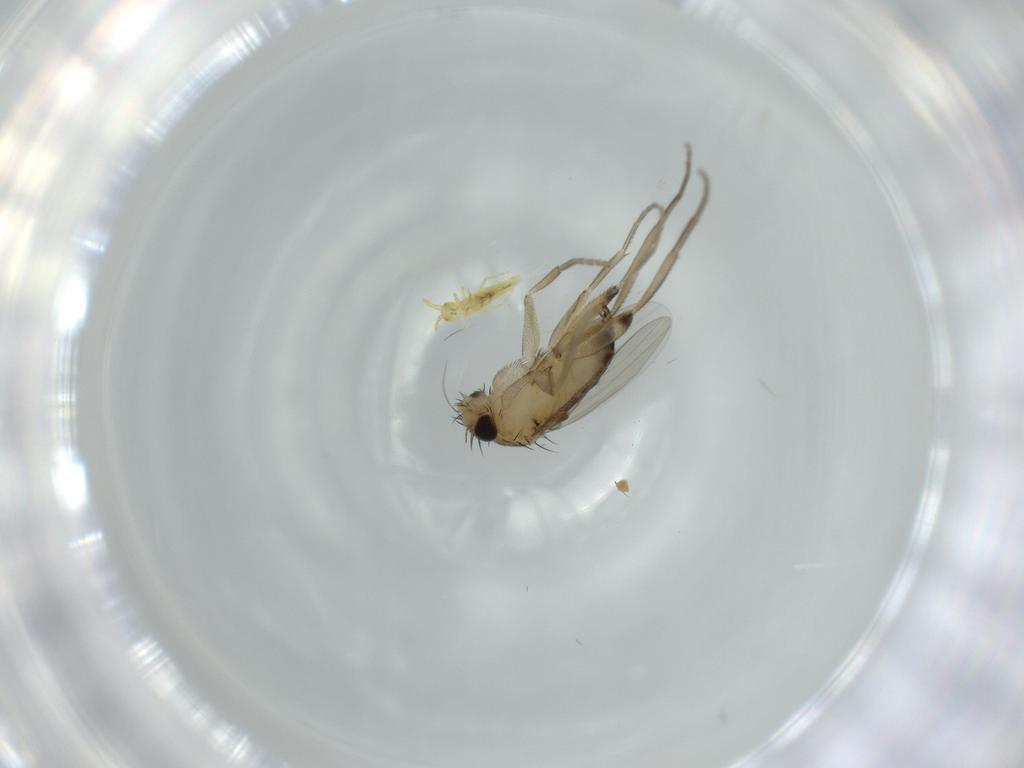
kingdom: Animalia
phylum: Arthropoda
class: Insecta
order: Diptera
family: Phoridae
